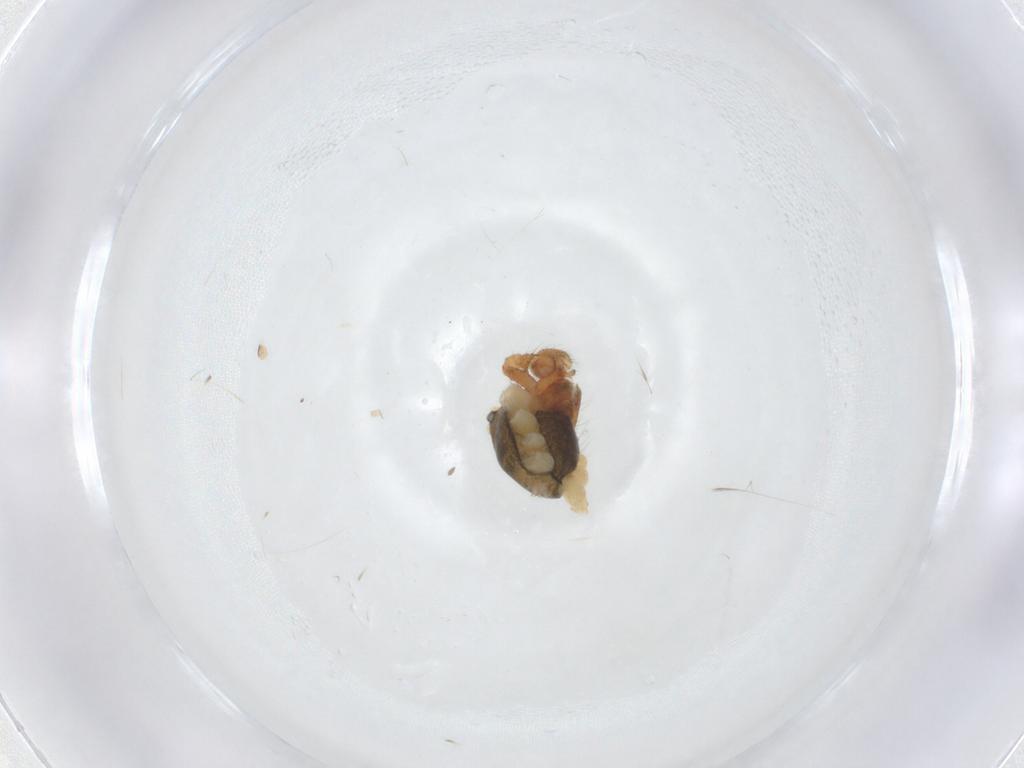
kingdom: Animalia
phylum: Arthropoda
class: Arachnida
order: Araneae
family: Theridiidae
